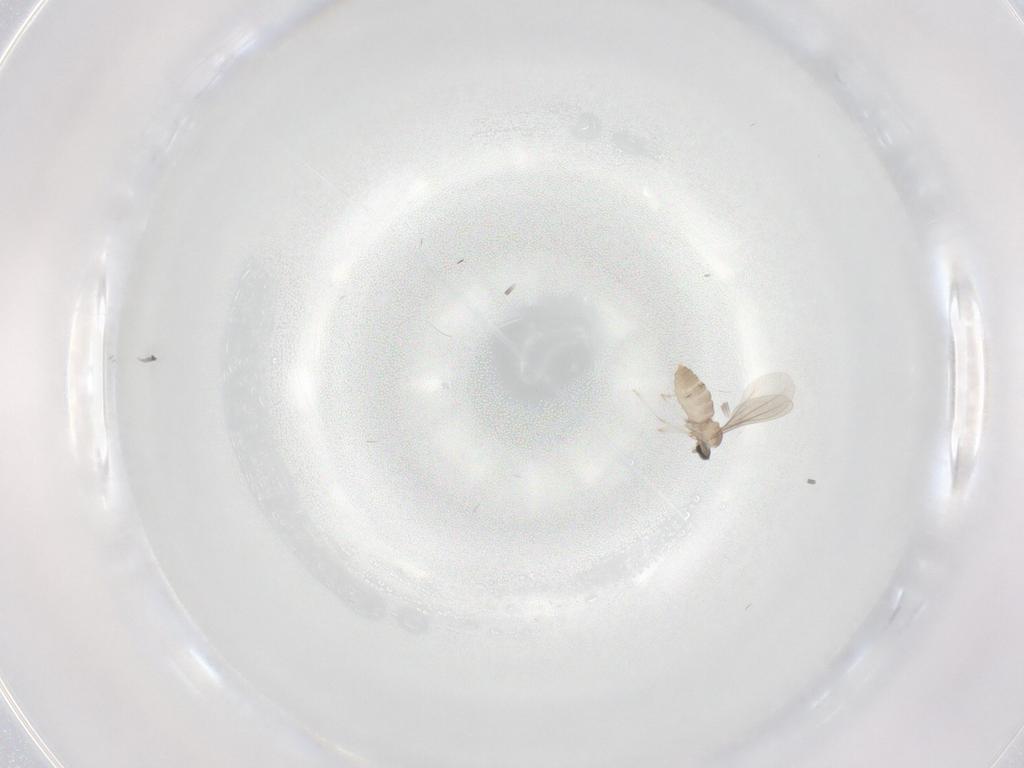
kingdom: Animalia
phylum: Arthropoda
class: Insecta
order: Diptera
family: Cecidomyiidae
